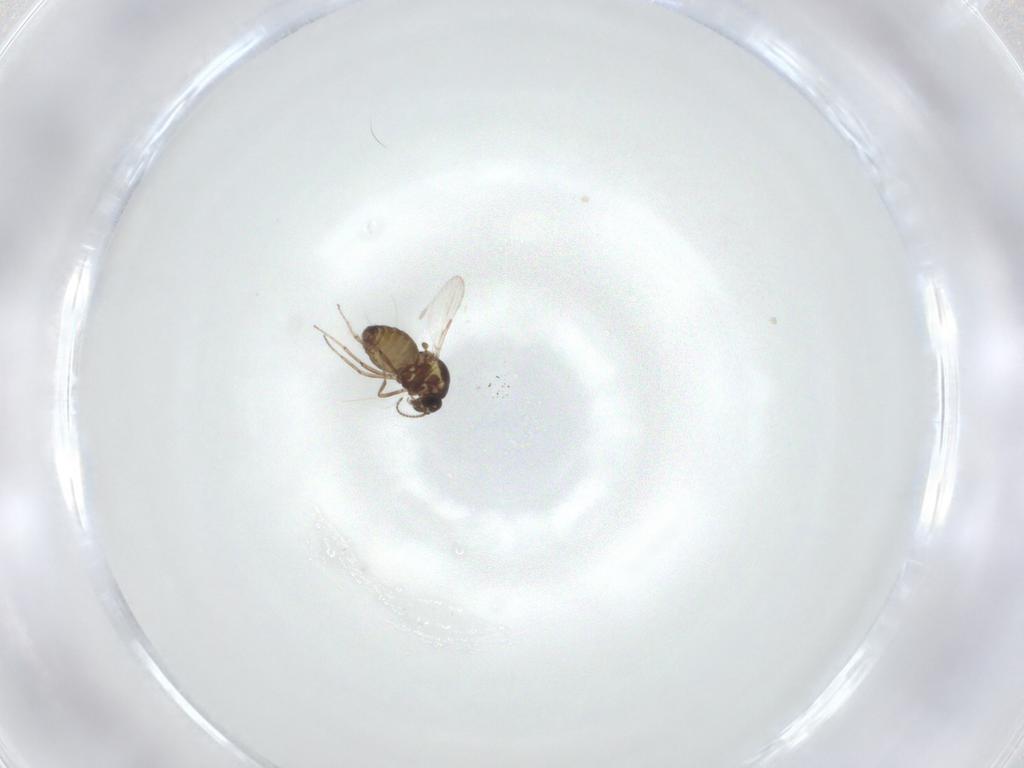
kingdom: Animalia
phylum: Arthropoda
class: Insecta
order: Diptera
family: Ceratopogonidae
